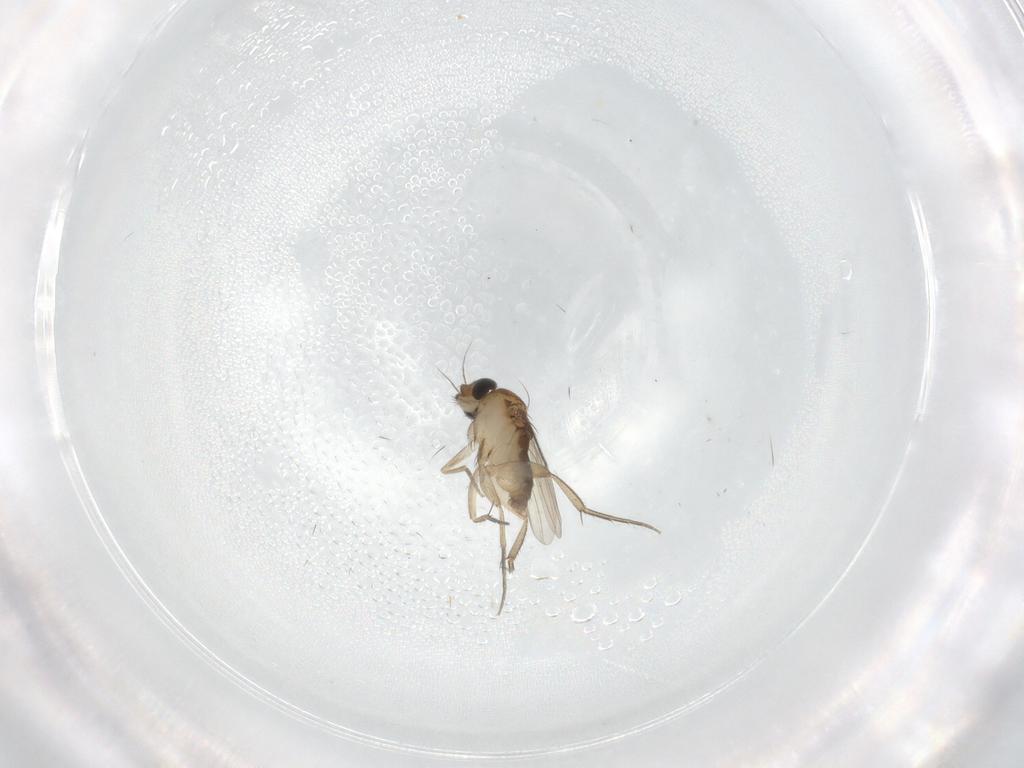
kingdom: Animalia
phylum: Arthropoda
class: Insecta
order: Diptera
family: Phoridae
